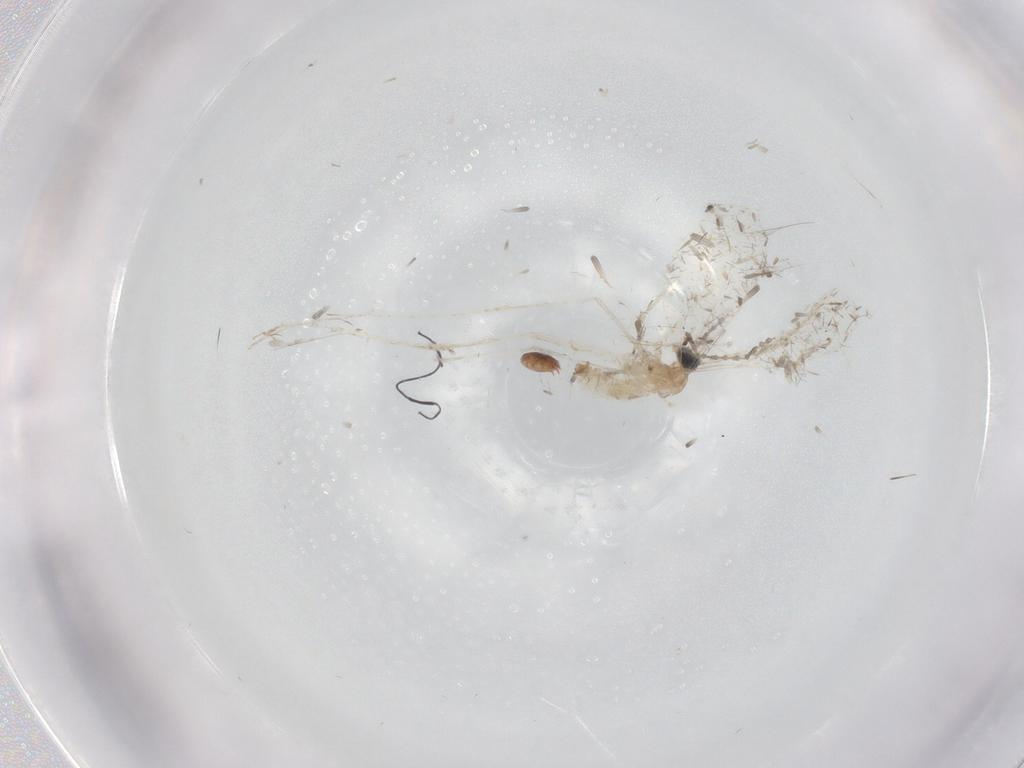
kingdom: Animalia
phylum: Arthropoda
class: Insecta
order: Diptera
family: Cecidomyiidae
